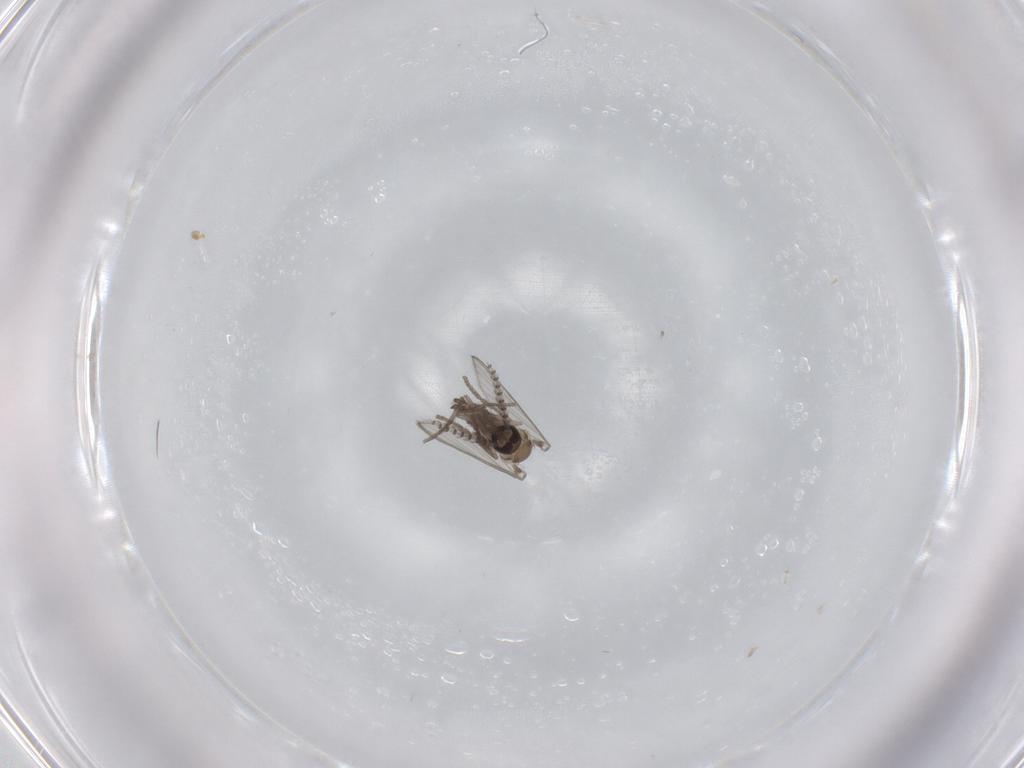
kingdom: Animalia
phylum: Arthropoda
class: Insecta
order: Diptera
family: Psychodidae
